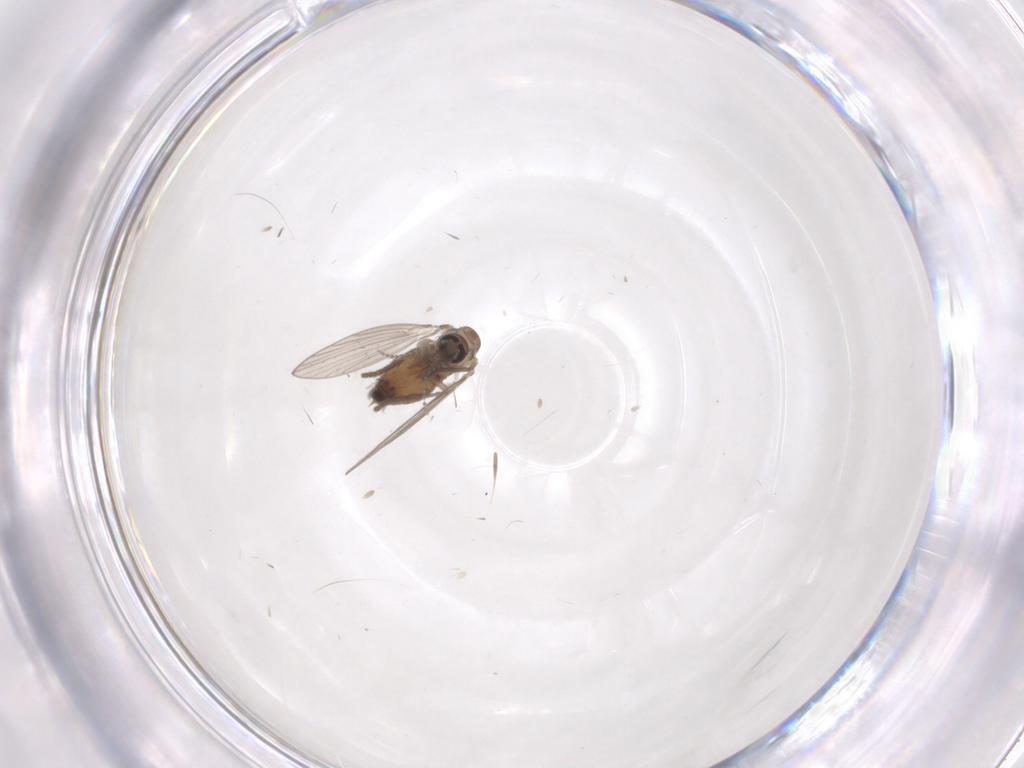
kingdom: Animalia
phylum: Arthropoda
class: Insecta
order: Diptera
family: Psychodidae
